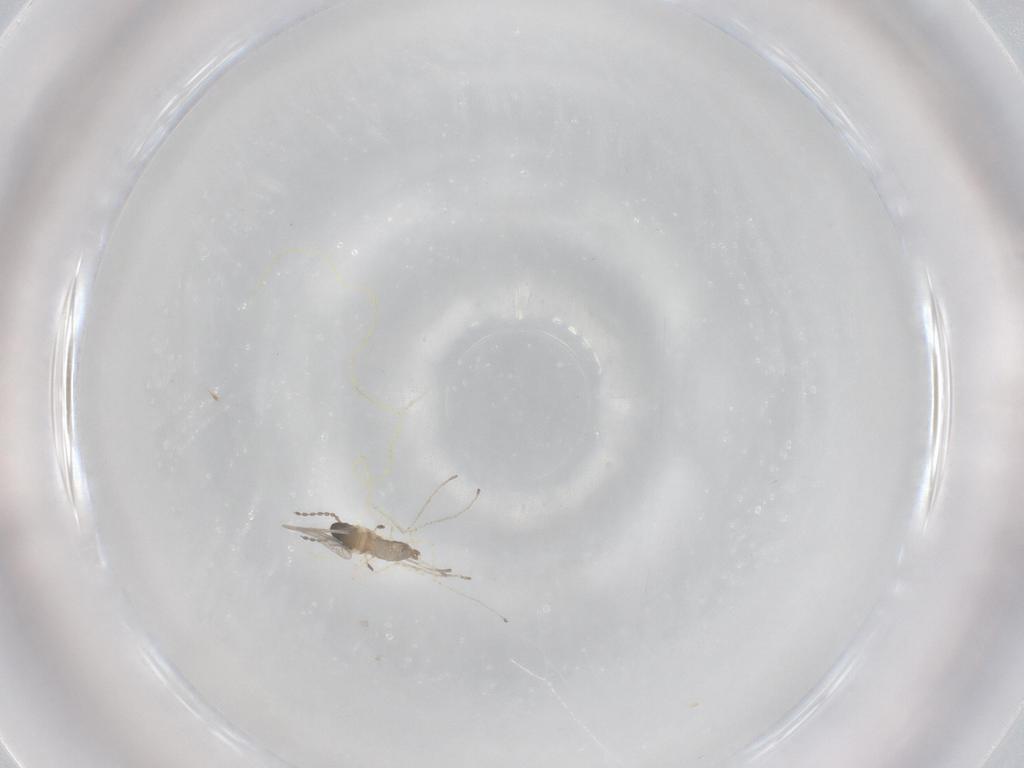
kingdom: Animalia
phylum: Arthropoda
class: Insecta
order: Diptera
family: Cecidomyiidae
